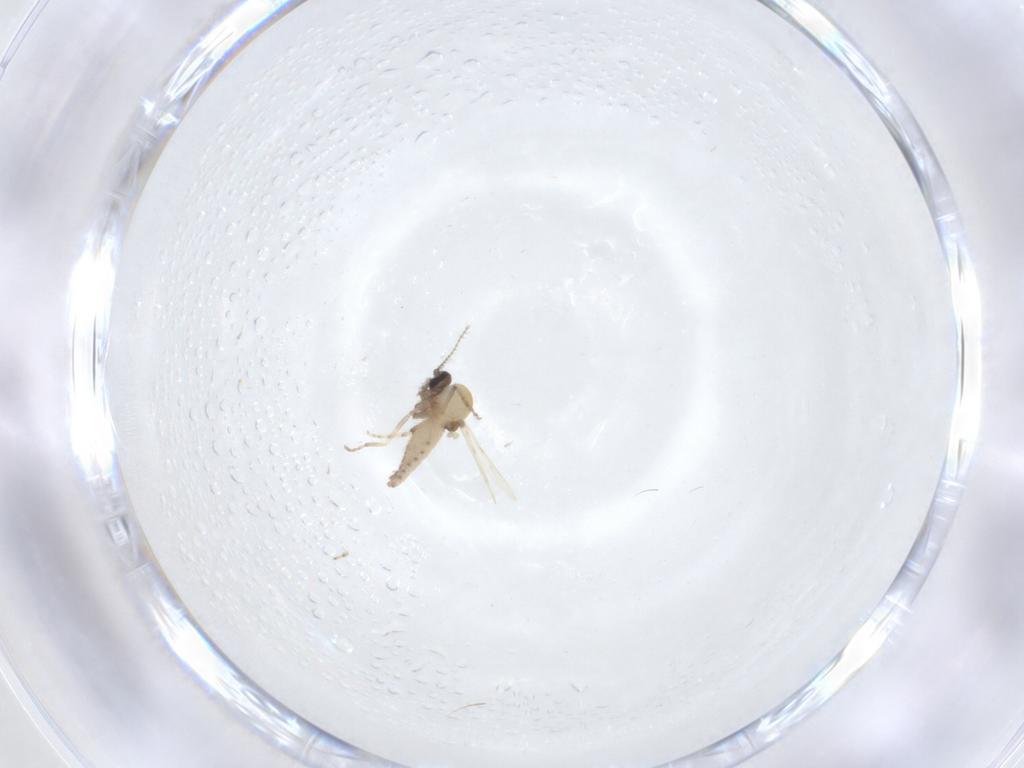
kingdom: Animalia
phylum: Arthropoda
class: Insecta
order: Diptera
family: Ceratopogonidae
